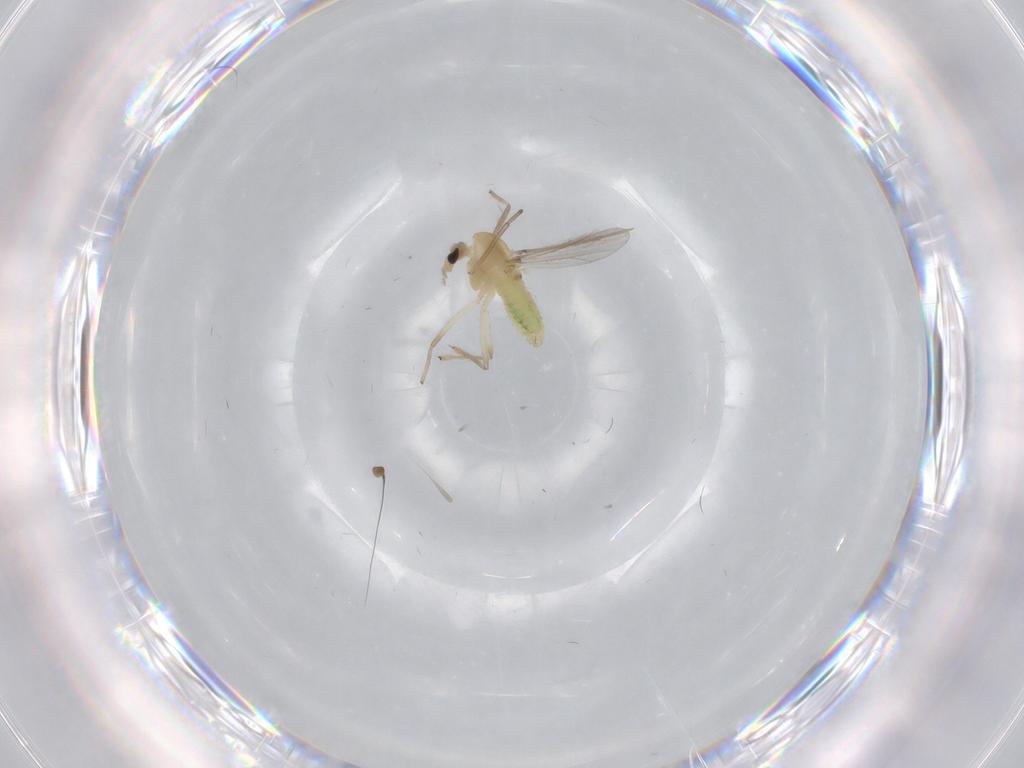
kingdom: Animalia
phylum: Arthropoda
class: Insecta
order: Diptera
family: Chironomidae
